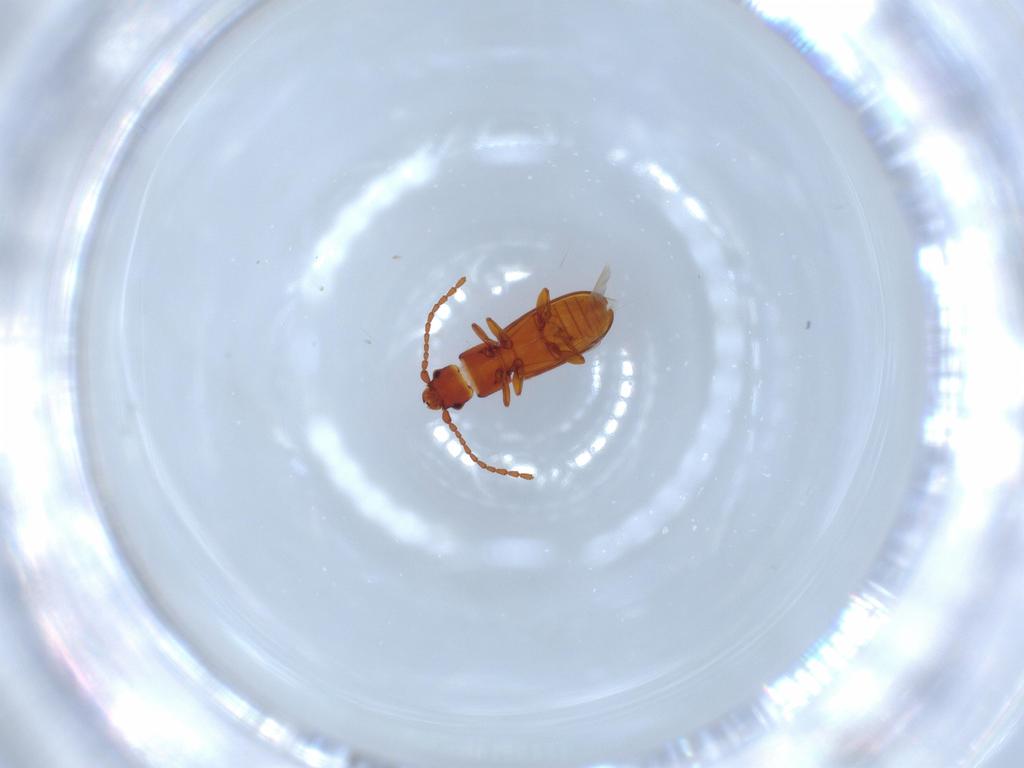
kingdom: Animalia
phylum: Arthropoda
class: Insecta
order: Coleoptera
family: Laemophloeidae
